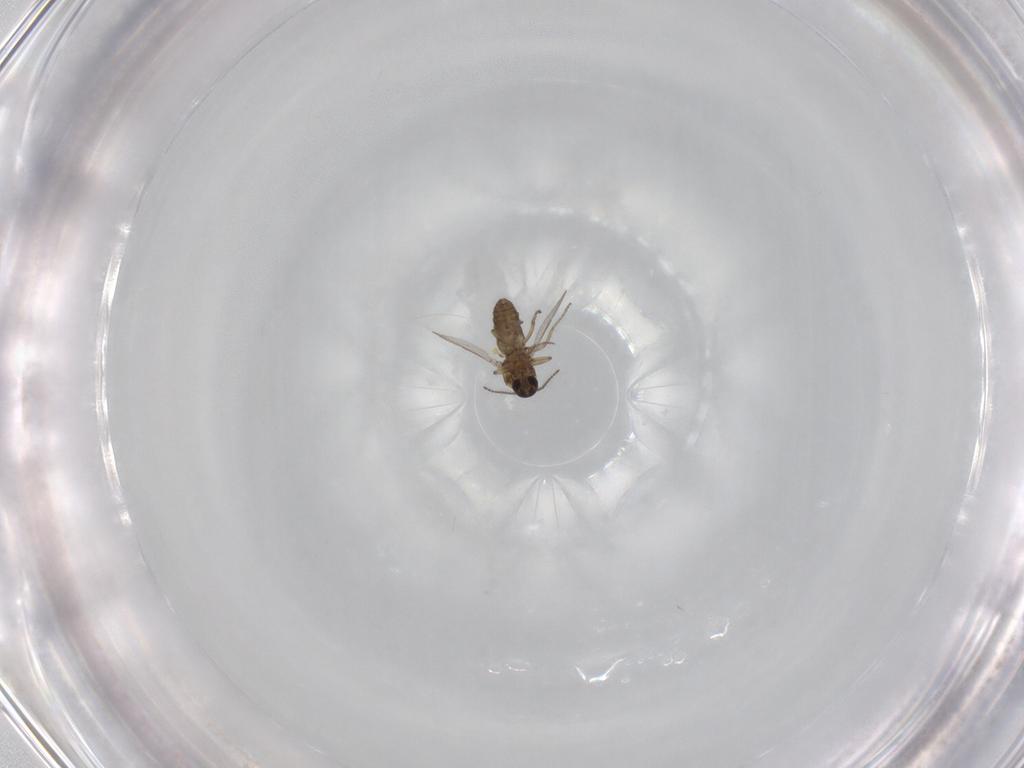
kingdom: Animalia
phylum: Arthropoda
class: Insecta
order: Diptera
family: Ceratopogonidae
